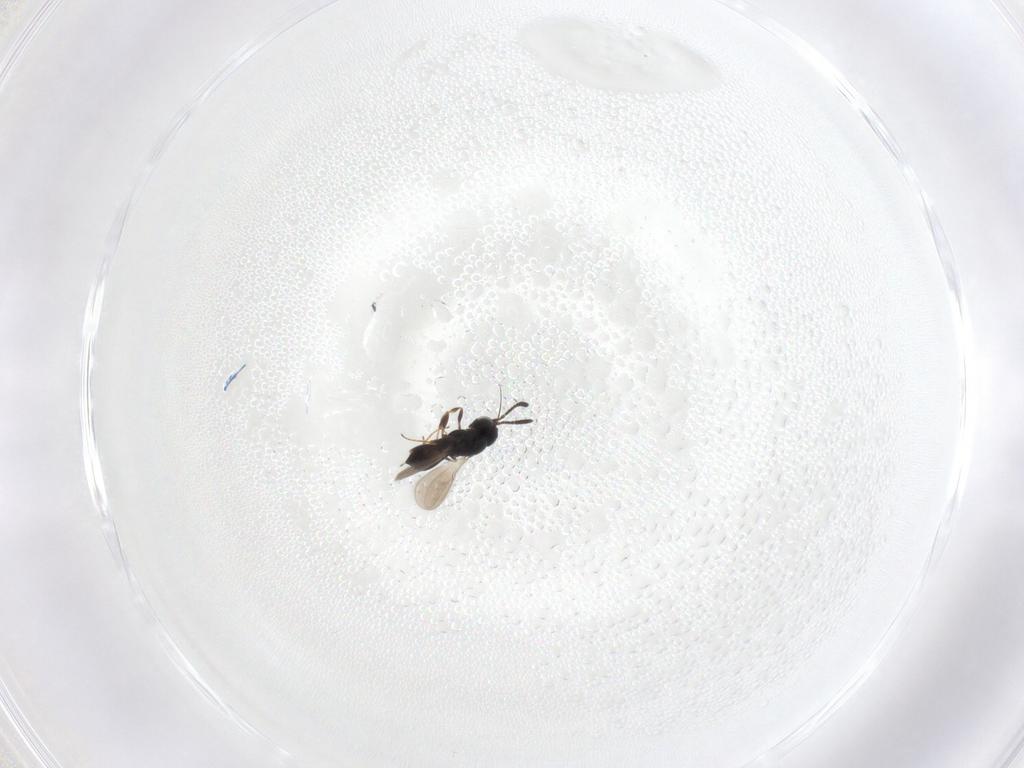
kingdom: Animalia
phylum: Arthropoda
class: Insecta
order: Hymenoptera
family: Scelionidae
